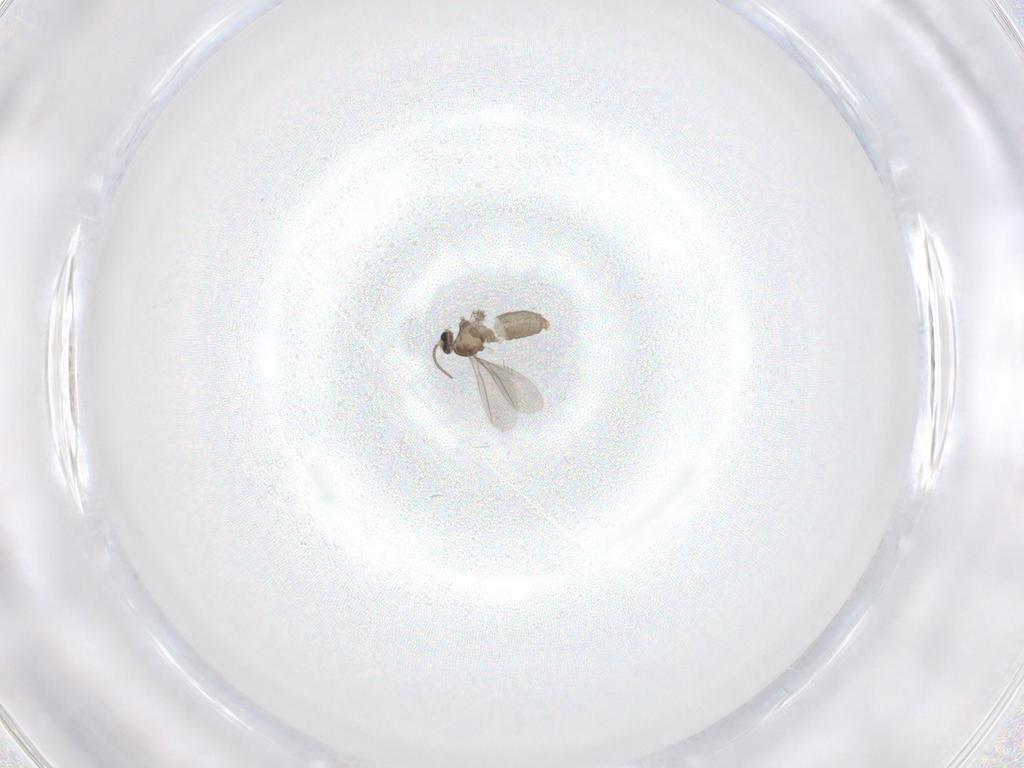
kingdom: Animalia
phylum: Arthropoda
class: Insecta
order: Diptera
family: Cecidomyiidae
